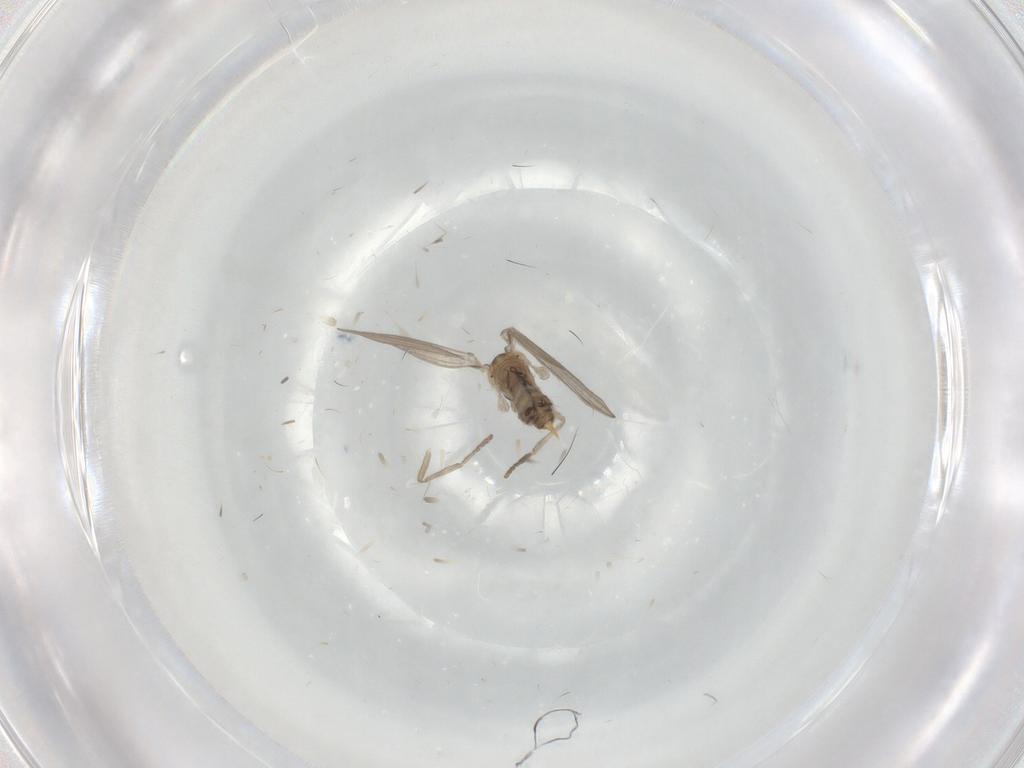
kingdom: Animalia
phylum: Arthropoda
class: Insecta
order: Diptera
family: Psychodidae
